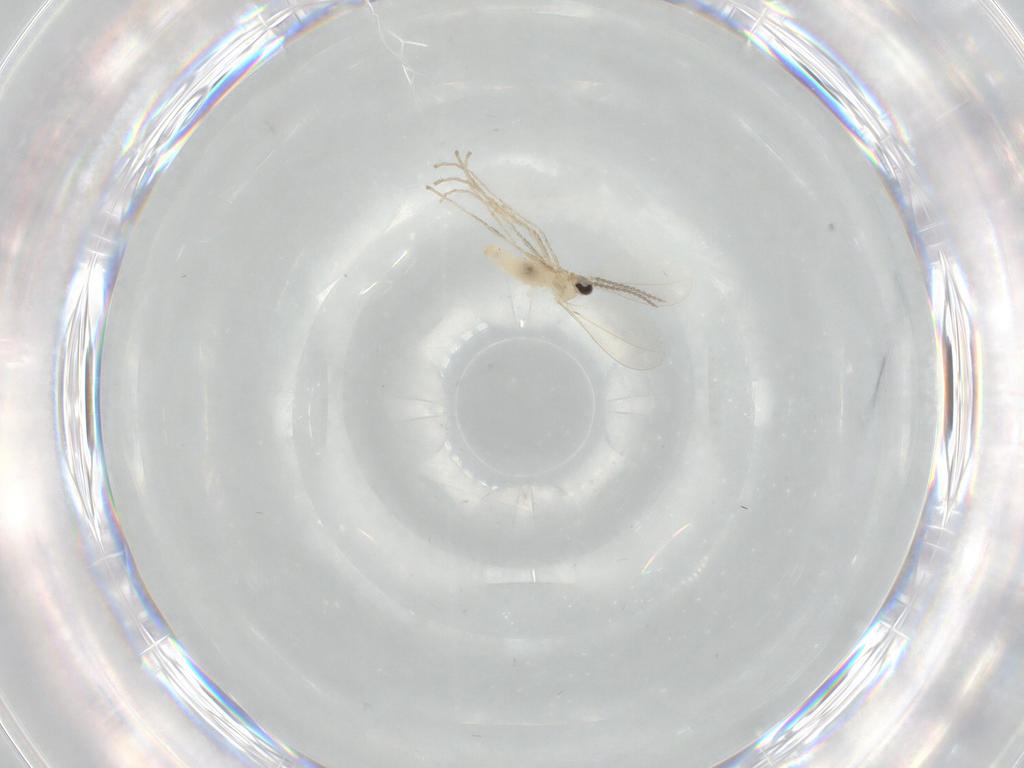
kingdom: Animalia
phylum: Arthropoda
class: Insecta
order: Diptera
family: Cecidomyiidae
